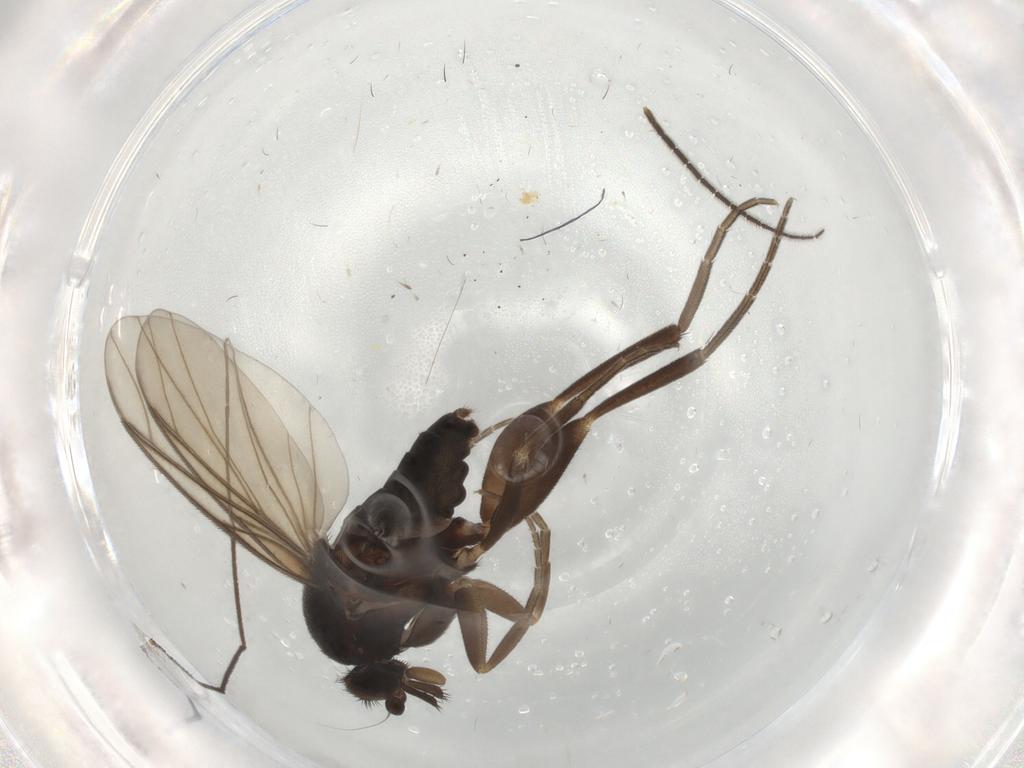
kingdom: Animalia
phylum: Arthropoda
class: Insecta
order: Diptera
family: Phoridae
